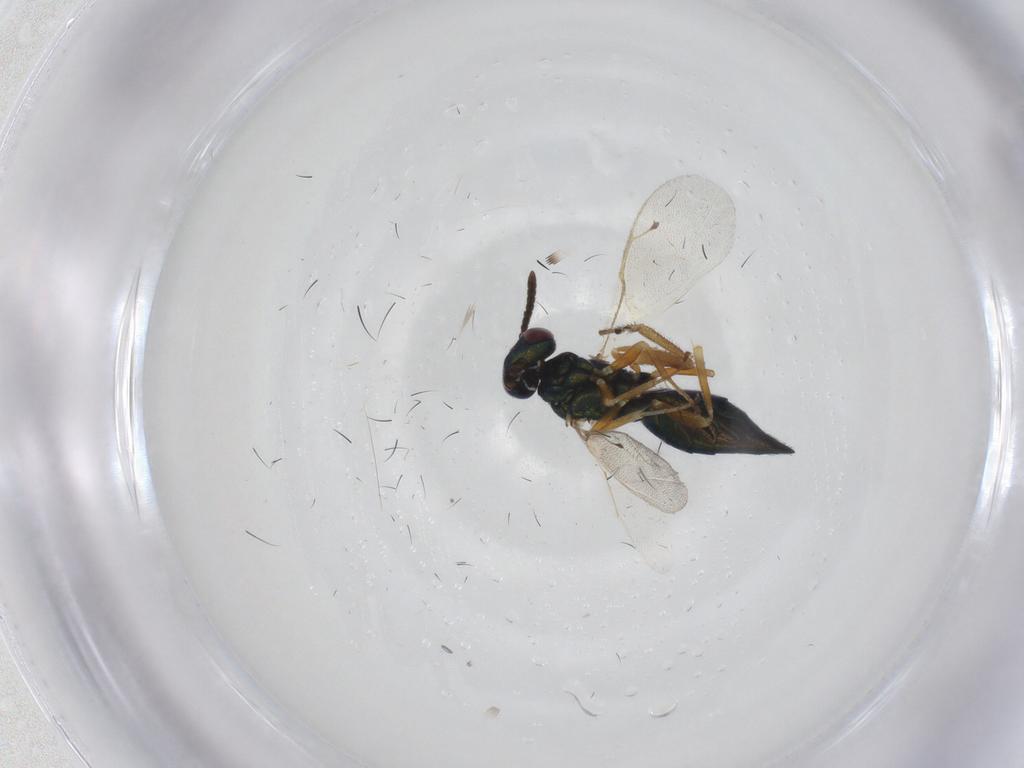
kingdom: Animalia
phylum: Arthropoda
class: Insecta
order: Hymenoptera
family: Pteromalidae
